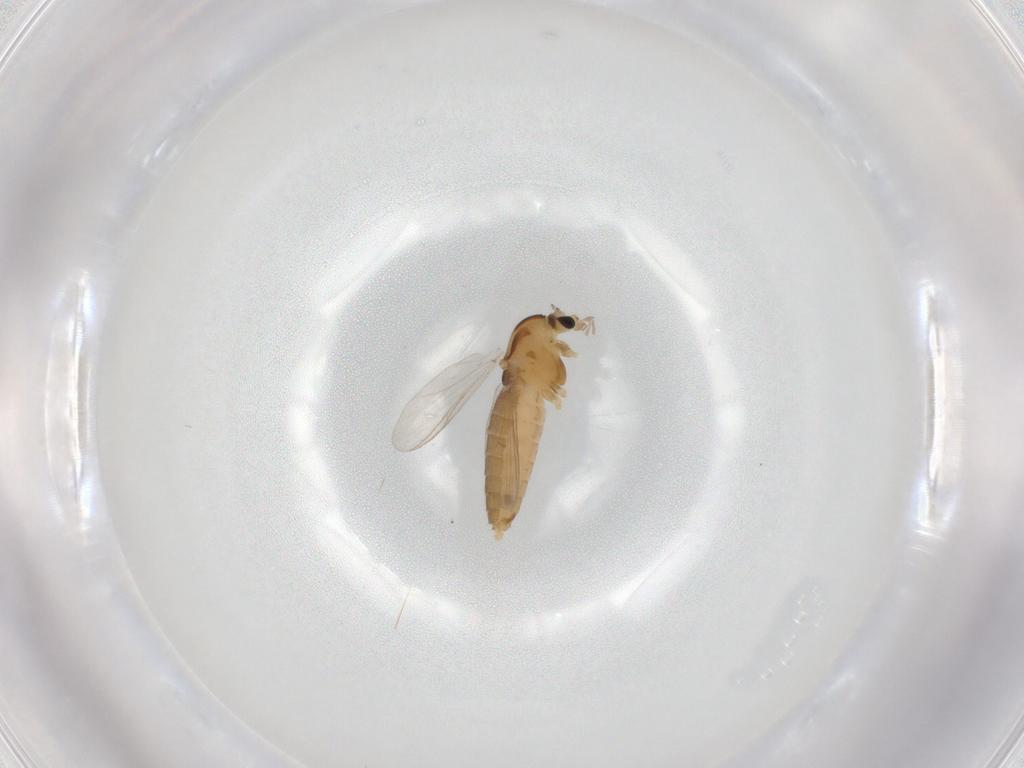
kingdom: Animalia
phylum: Arthropoda
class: Insecta
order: Diptera
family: Chironomidae
